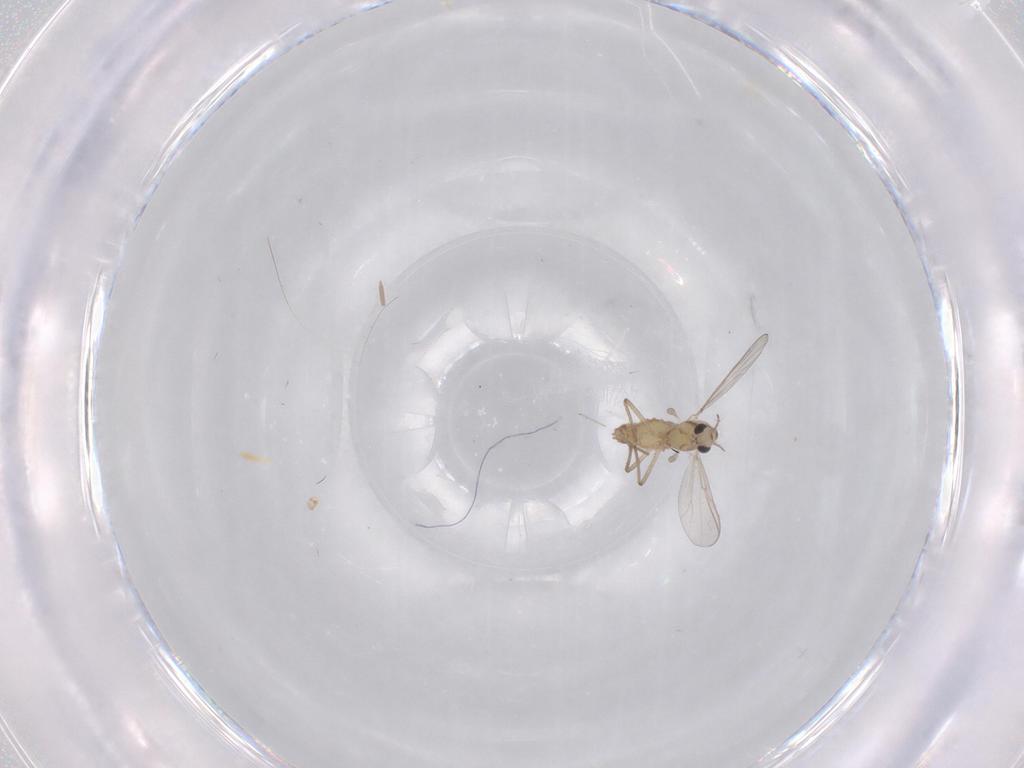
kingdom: Animalia
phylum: Arthropoda
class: Insecta
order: Diptera
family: Sciaridae
